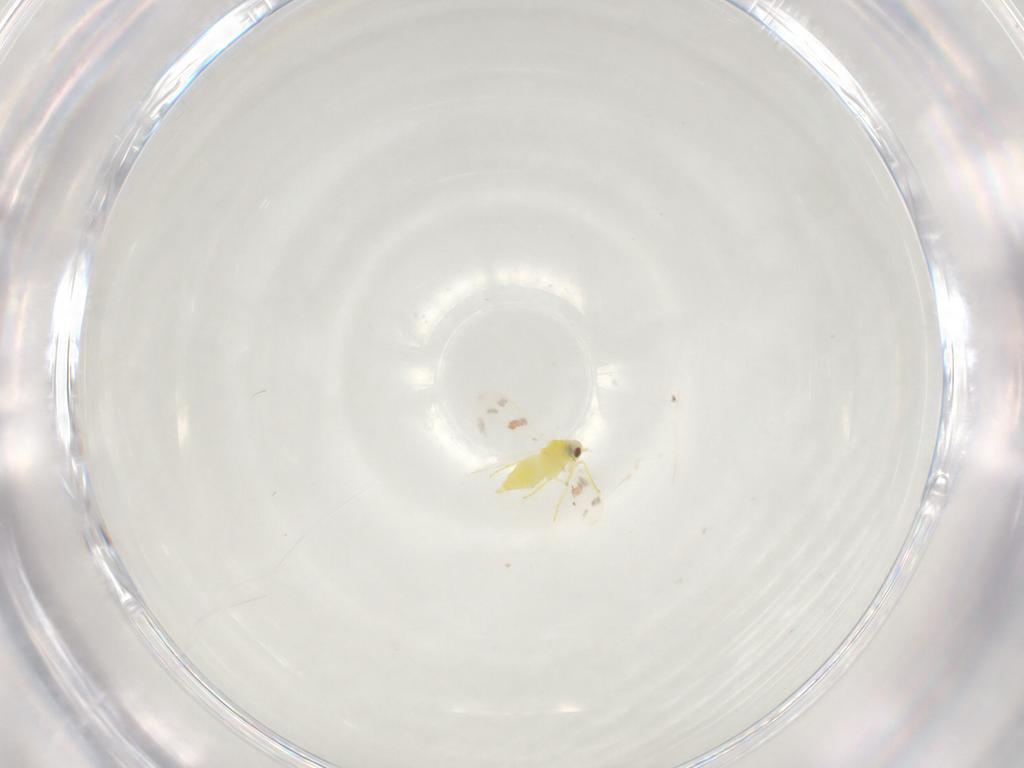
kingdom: Animalia
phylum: Arthropoda
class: Insecta
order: Hemiptera
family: Aleyrodidae
